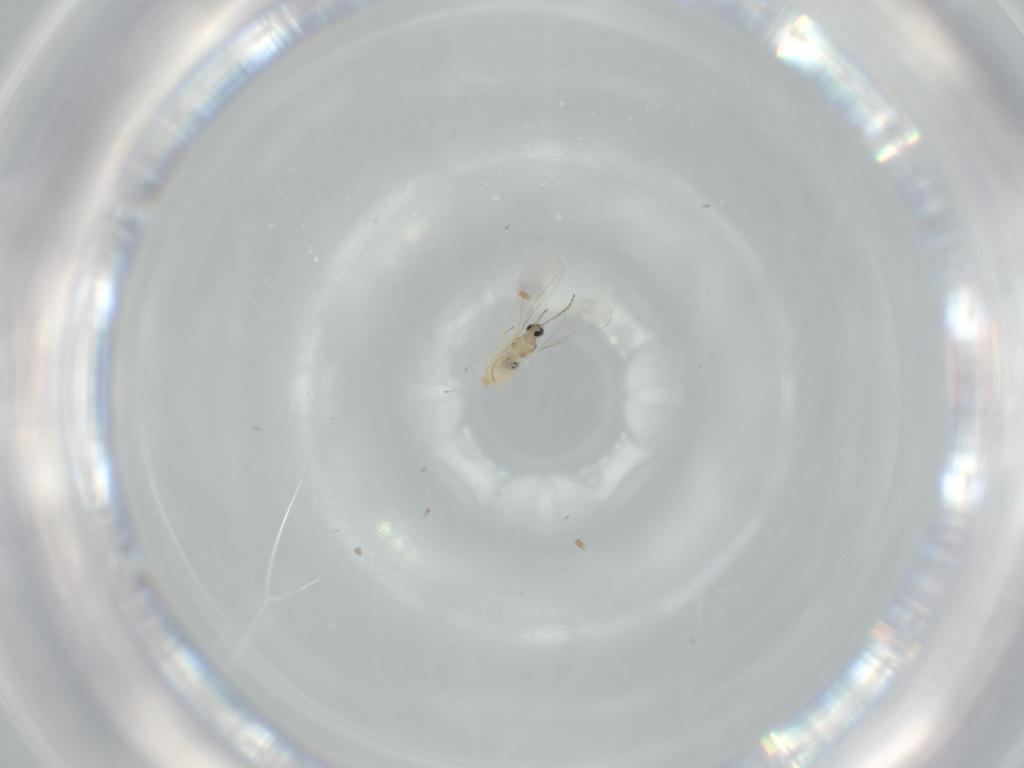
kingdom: Animalia
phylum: Arthropoda
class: Insecta
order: Diptera
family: Cecidomyiidae
